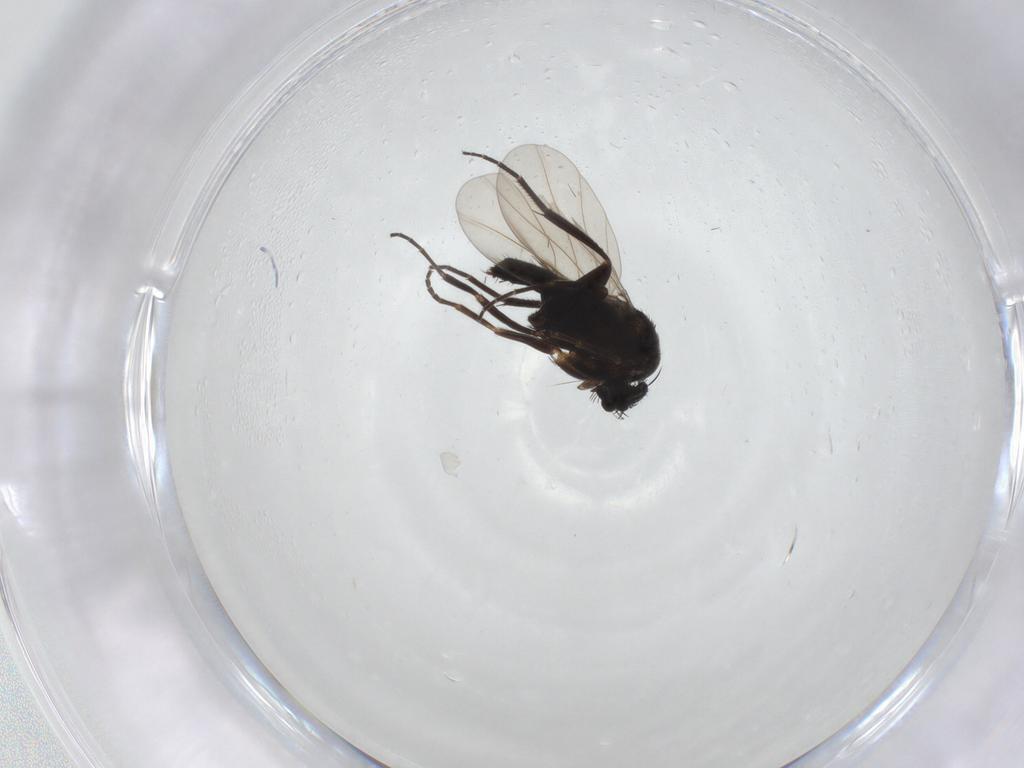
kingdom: Animalia
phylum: Arthropoda
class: Insecta
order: Diptera
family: Phoridae
